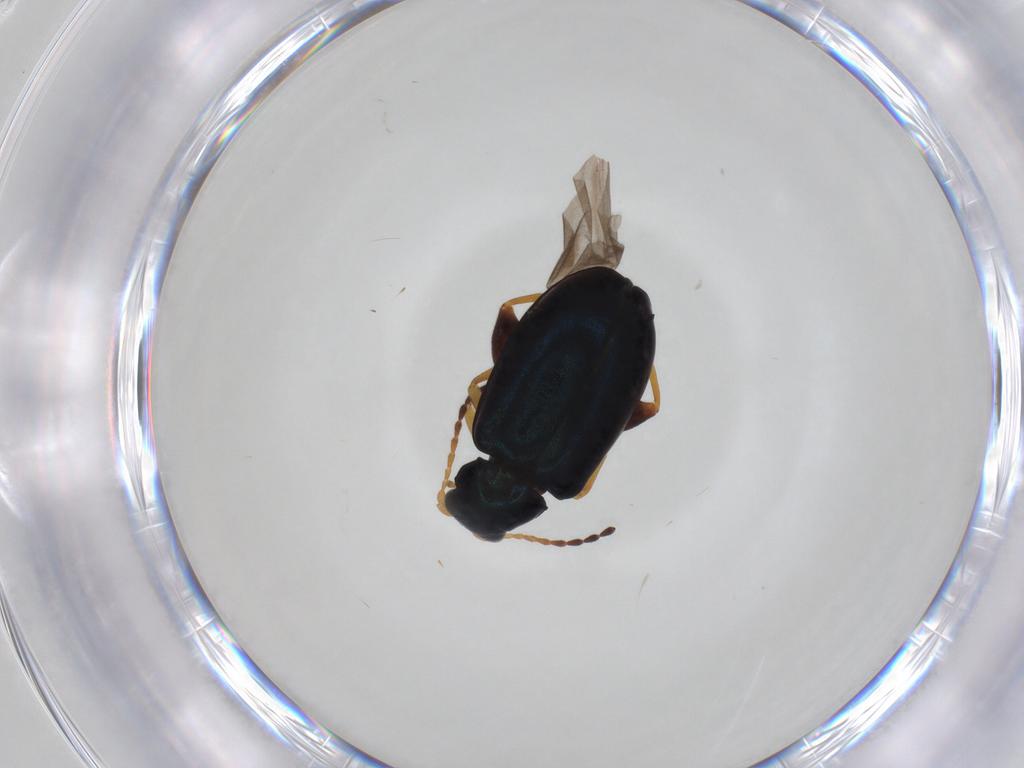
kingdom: Animalia
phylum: Arthropoda
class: Insecta
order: Coleoptera
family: Chrysomelidae
